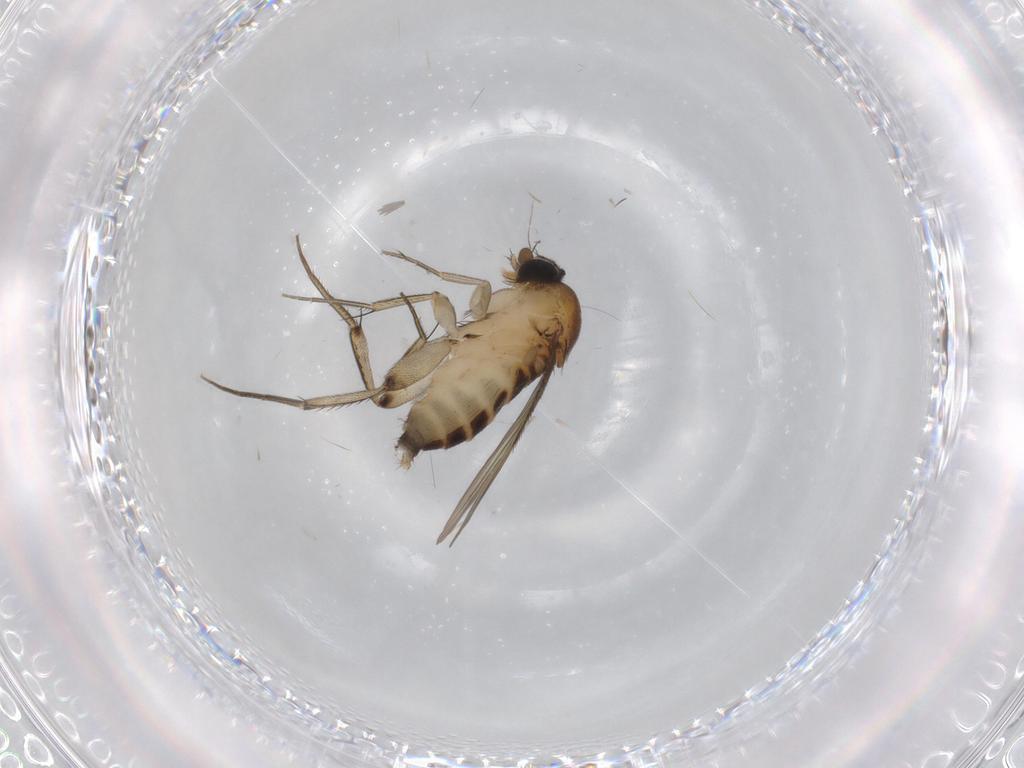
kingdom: Animalia
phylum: Arthropoda
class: Insecta
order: Diptera
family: Phoridae
